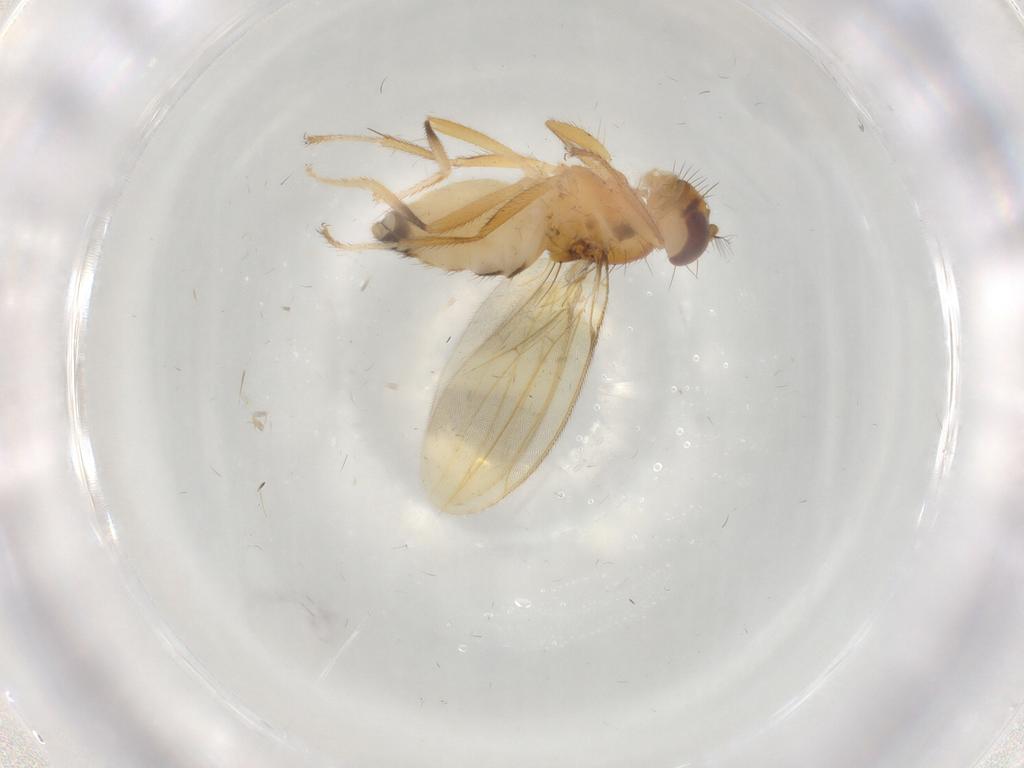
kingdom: Animalia
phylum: Arthropoda
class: Insecta
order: Diptera
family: Periscelididae
